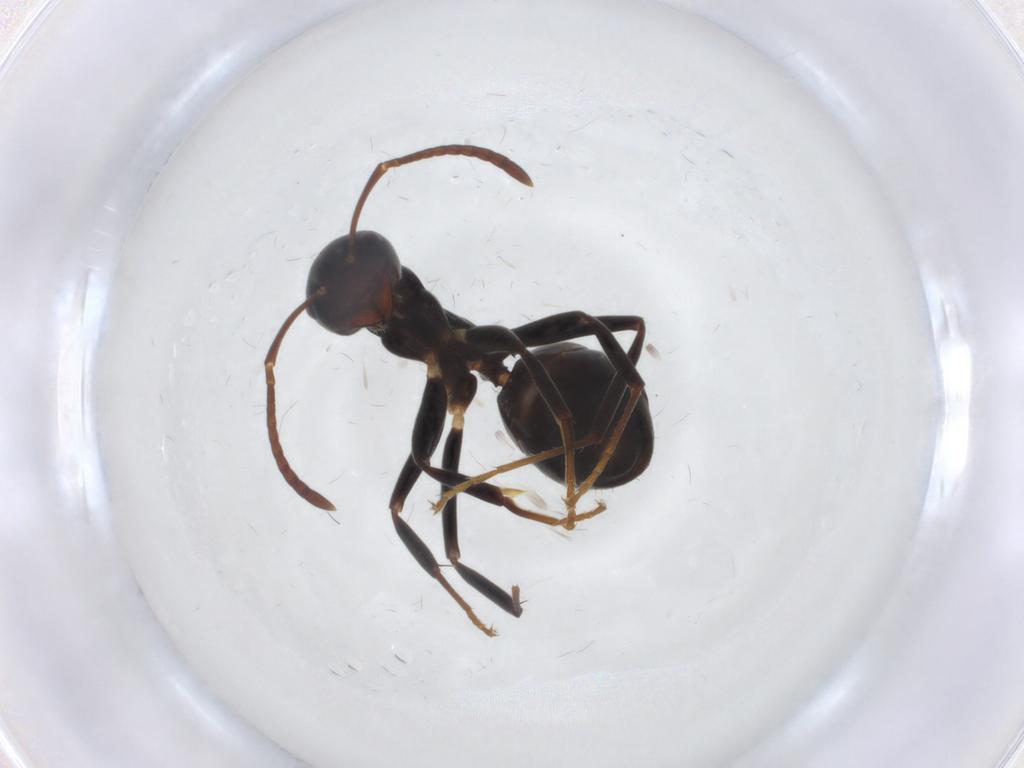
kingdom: Animalia
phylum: Arthropoda
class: Insecta
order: Hymenoptera
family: Formicidae
